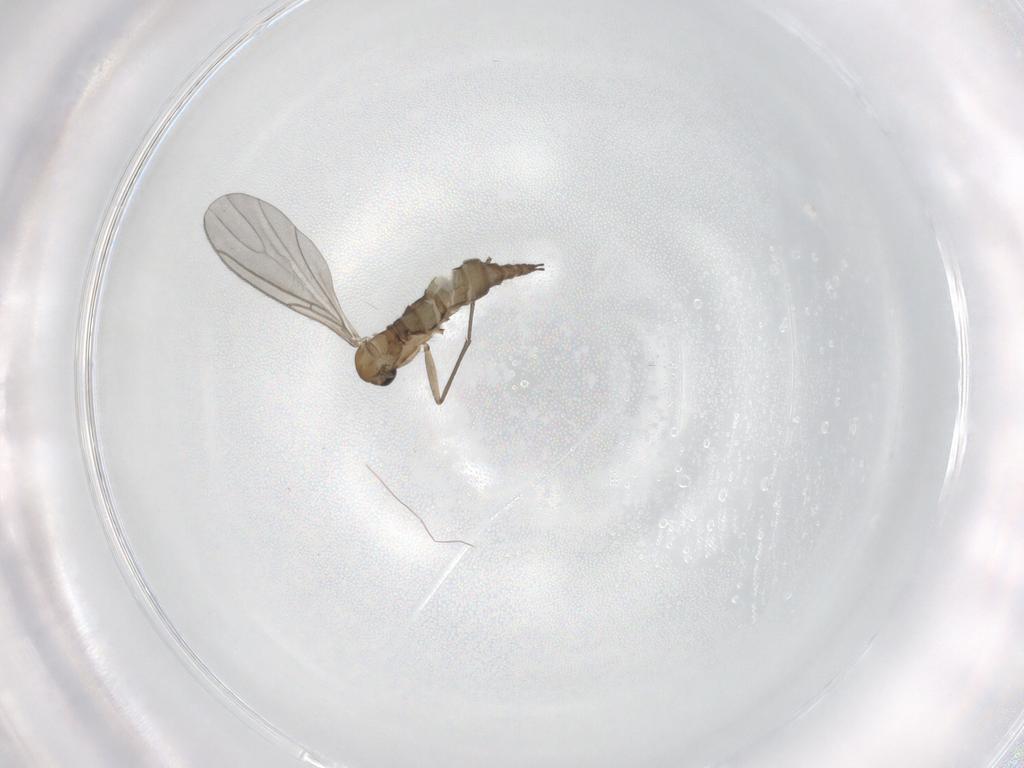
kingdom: Animalia
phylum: Arthropoda
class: Insecta
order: Diptera
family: Sciaridae
